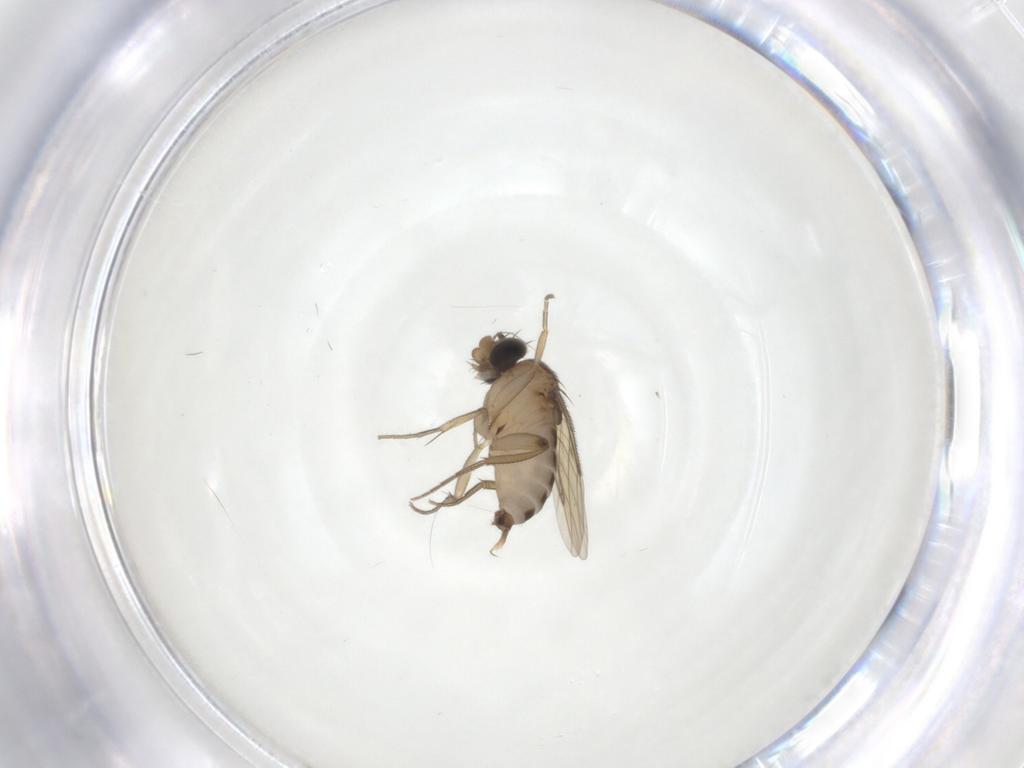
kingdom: Animalia
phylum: Arthropoda
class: Insecta
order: Diptera
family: Phoridae
